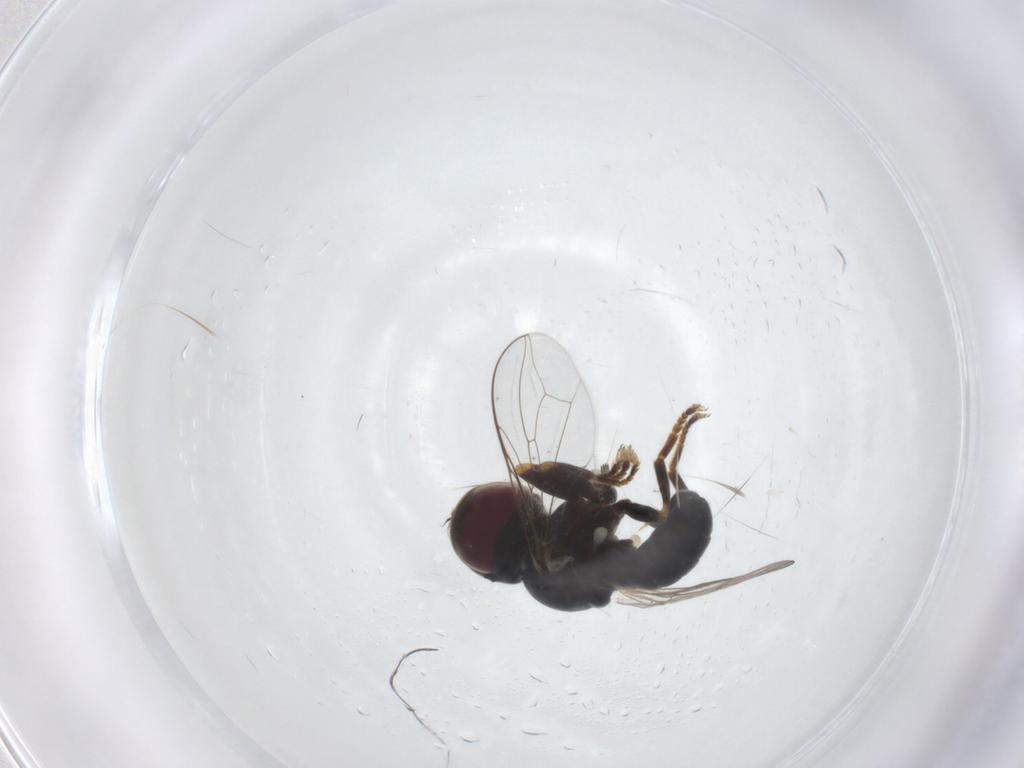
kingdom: Animalia
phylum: Arthropoda
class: Insecta
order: Diptera
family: Pipunculidae
